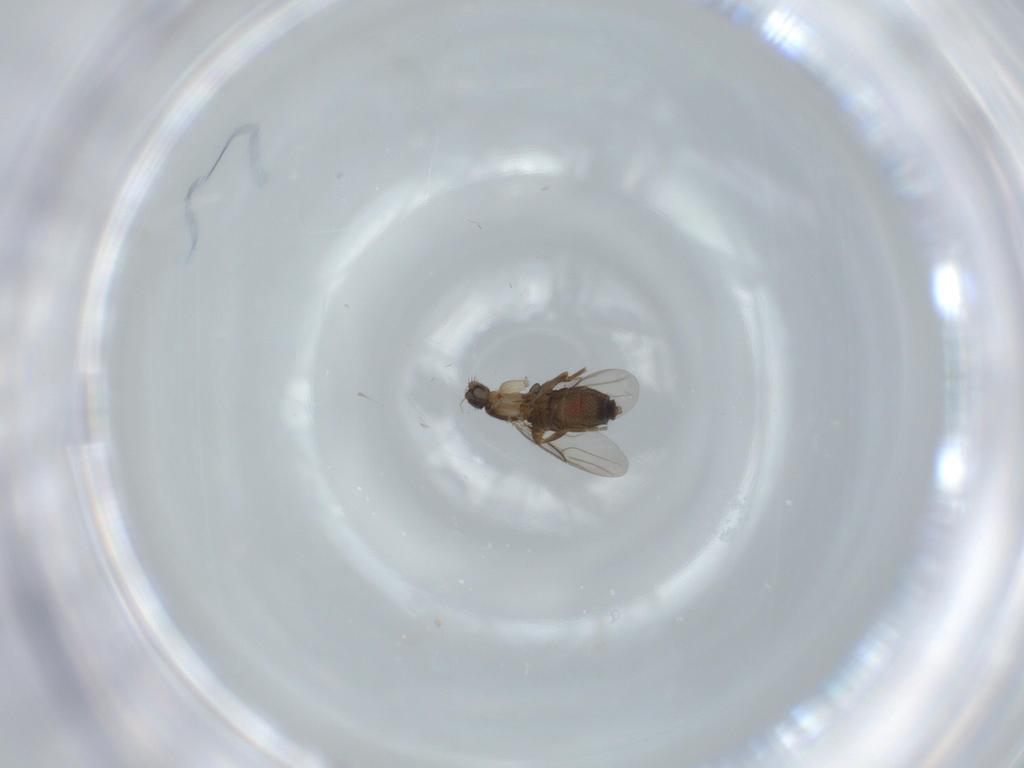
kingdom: Animalia
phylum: Arthropoda
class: Insecta
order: Diptera
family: Phoridae
